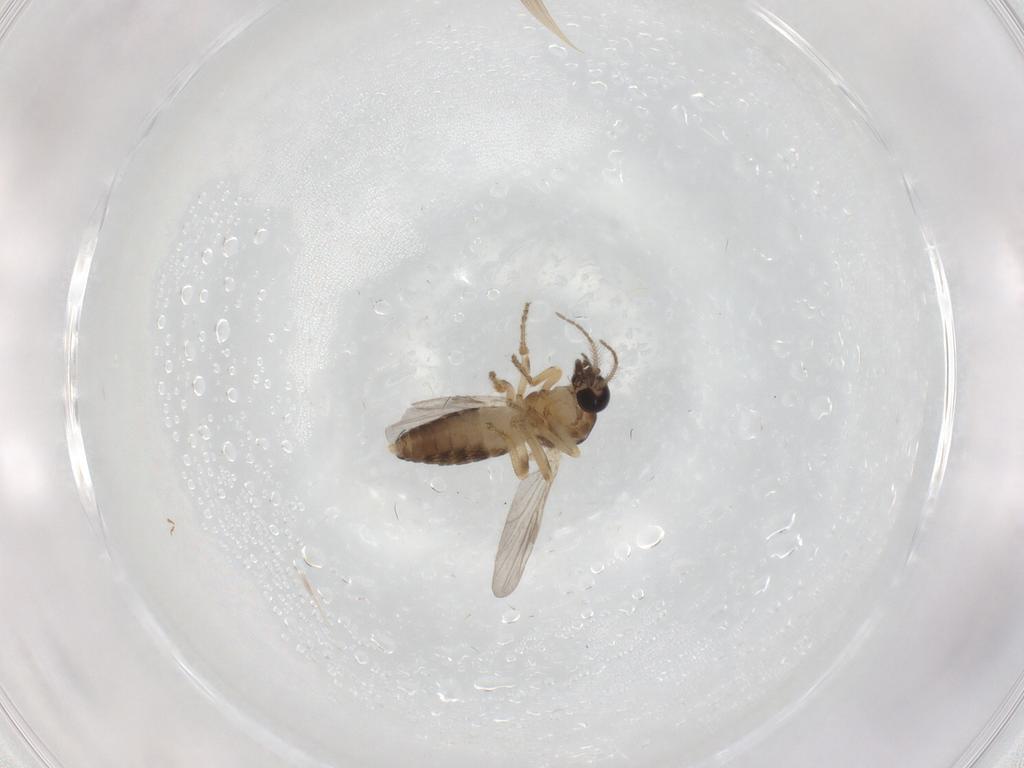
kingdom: Animalia
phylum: Arthropoda
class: Insecta
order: Diptera
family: Ceratopogonidae
